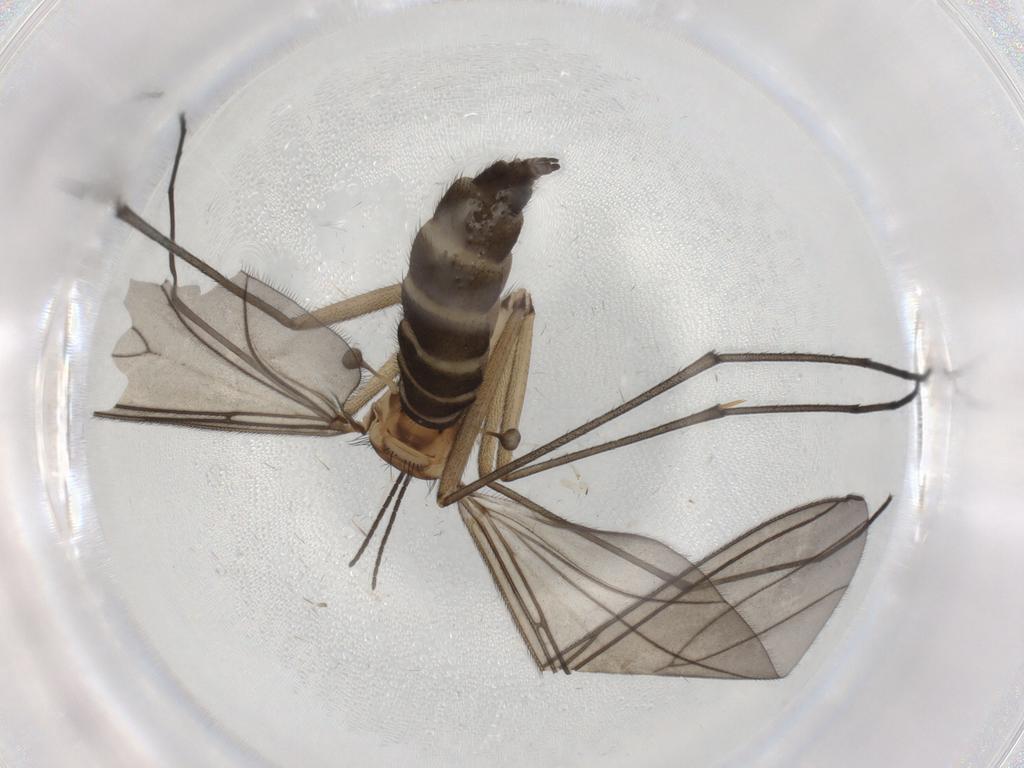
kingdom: Animalia
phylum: Arthropoda
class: Insecta
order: Diptera
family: Sciaridae
